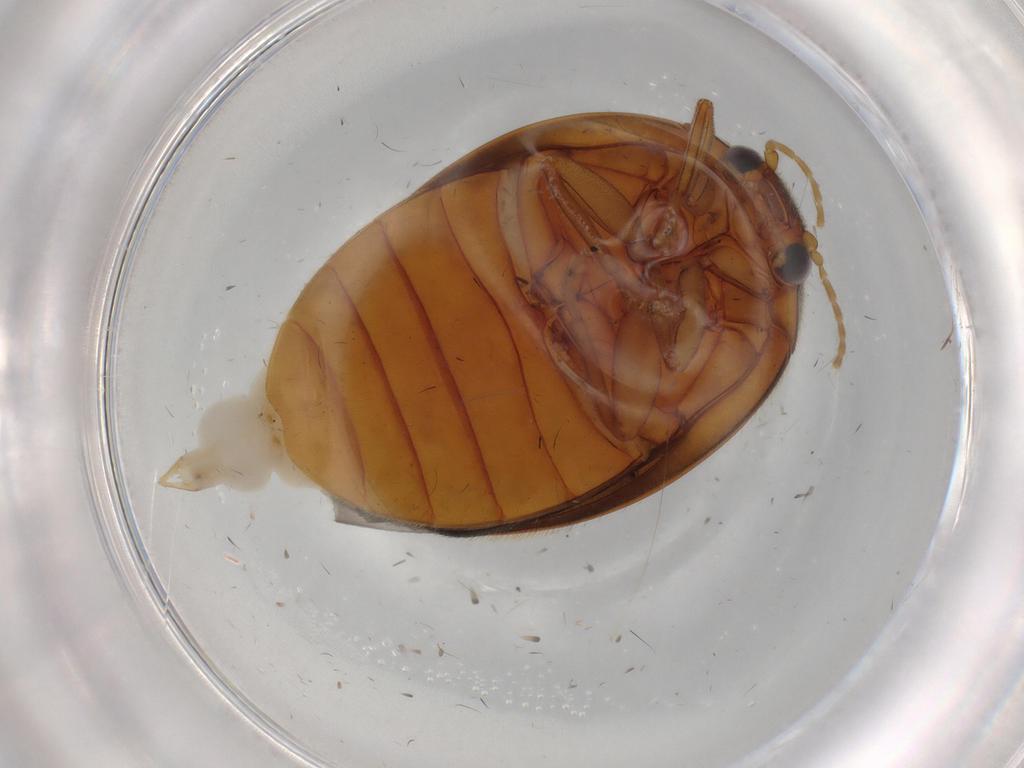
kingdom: Animalia
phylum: Arthropoda
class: Insecta
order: Coleoptera
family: Scirtidae
